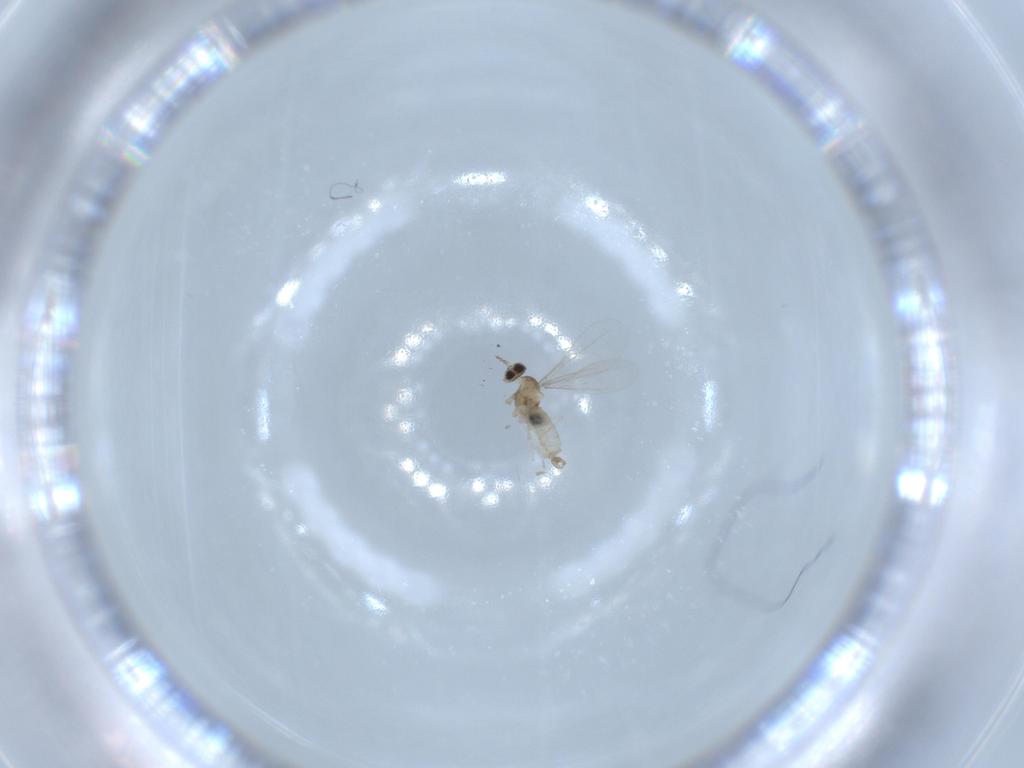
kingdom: Animalia
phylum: Arthropoda
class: Insecta
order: Diptera
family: Cecidomyiidae
